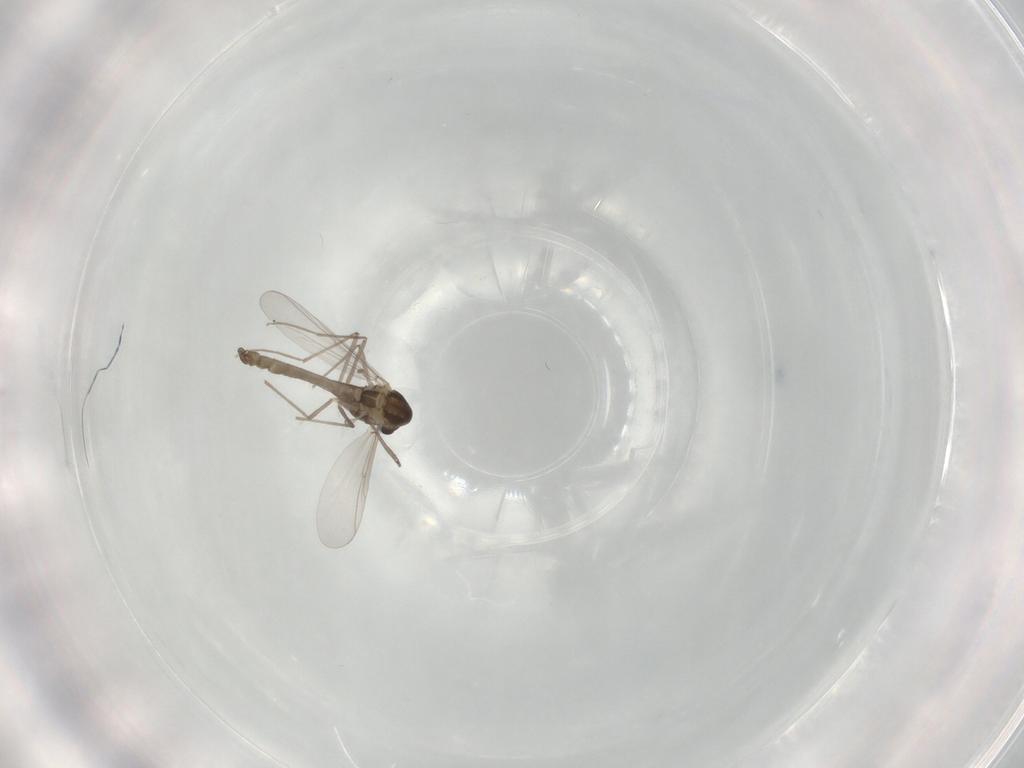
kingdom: Animalia
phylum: Arthropoda
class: Insecta
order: Diptera
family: Chironomidae
